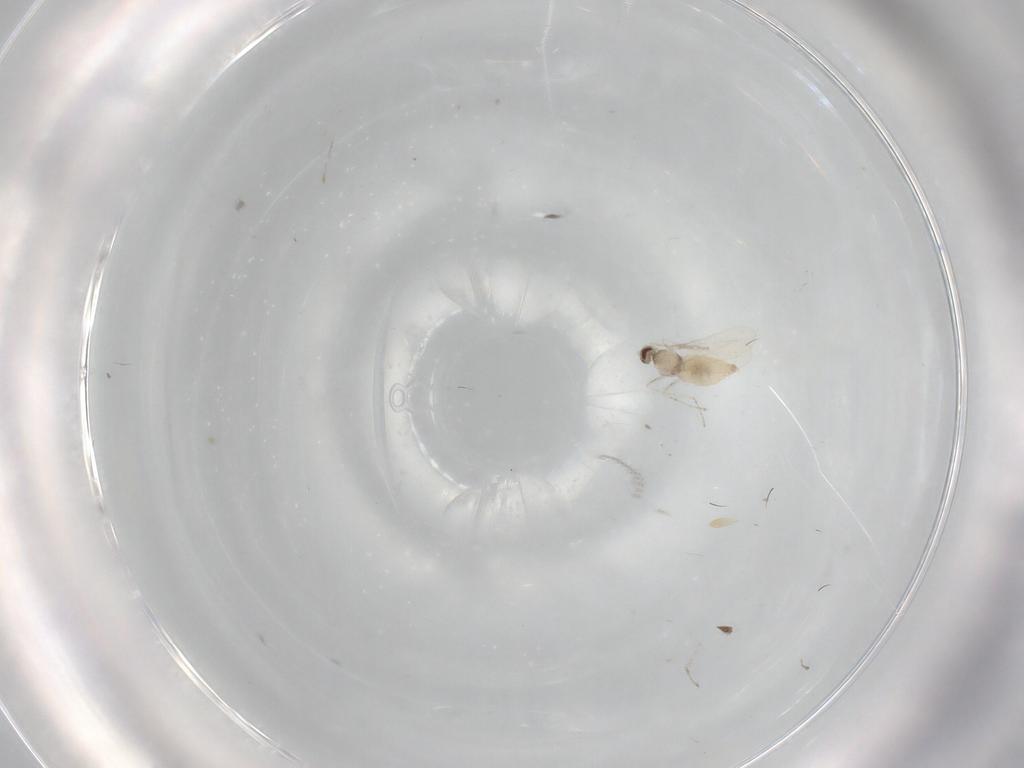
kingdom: Animalia
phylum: Arthropoda
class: Insecta
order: Diptera
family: Cecidomyiidae
